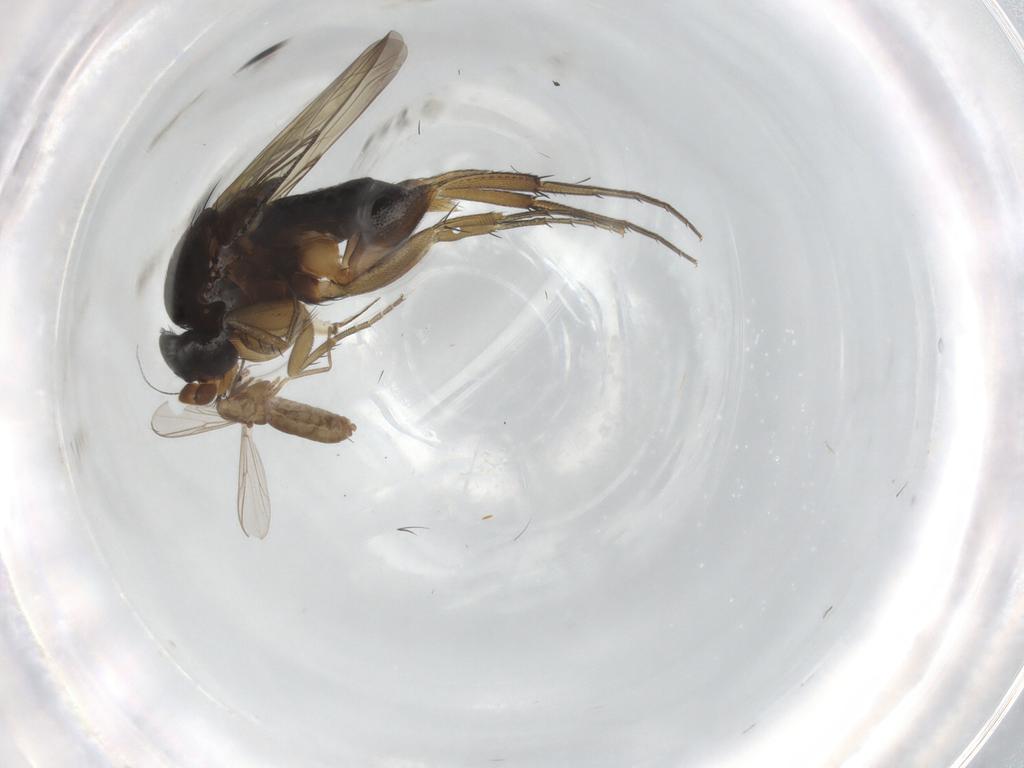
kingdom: Animalia
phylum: Arthropoda
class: Insecta
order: Diptera
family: Phoridae
